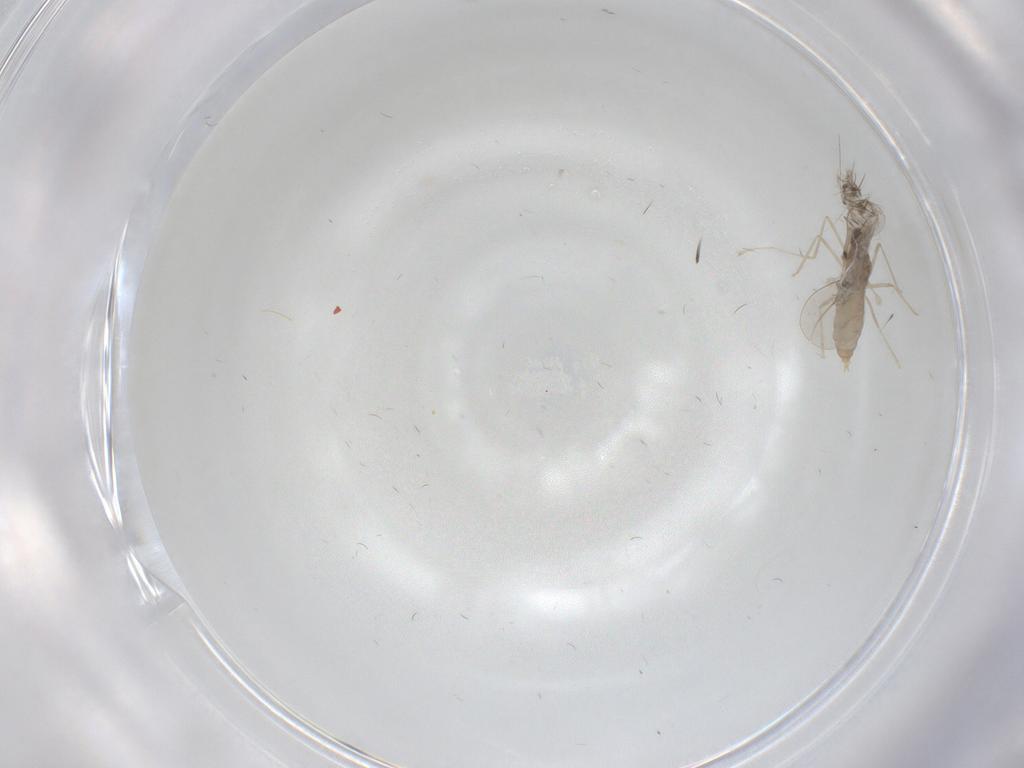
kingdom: Animalia
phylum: Arthropoda
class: Insecta
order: Diptera
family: Cecidomyiidae
